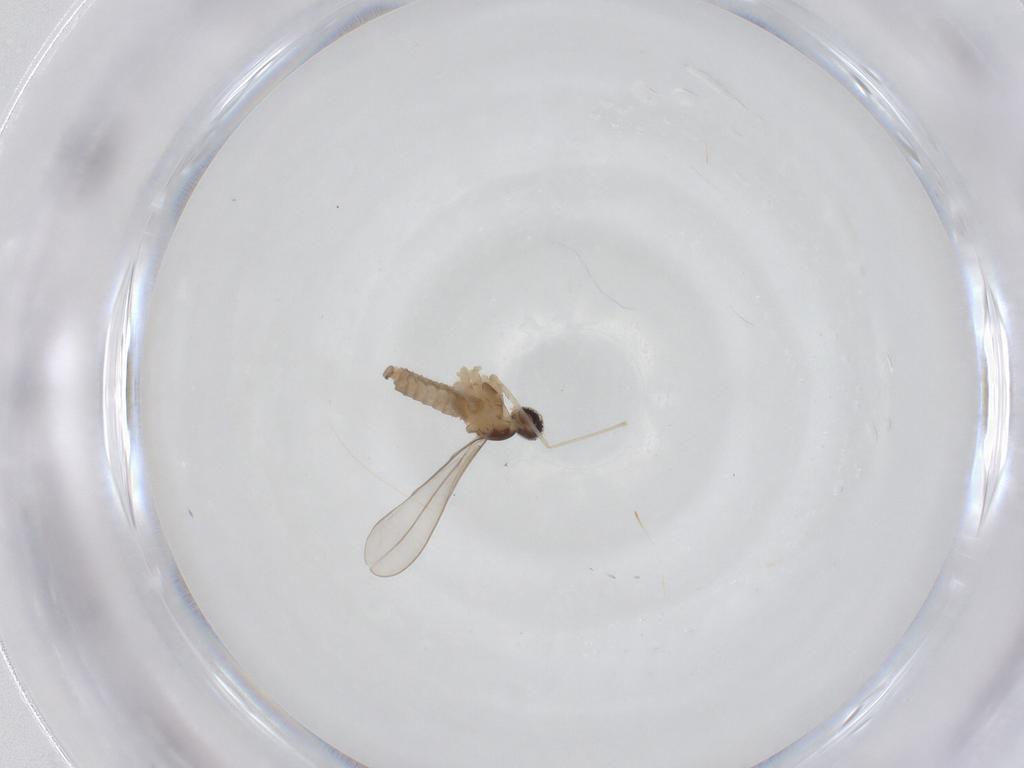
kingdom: Animalia
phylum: Arthropoda
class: Insecta
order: Diptera
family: Cecidomyiidae
